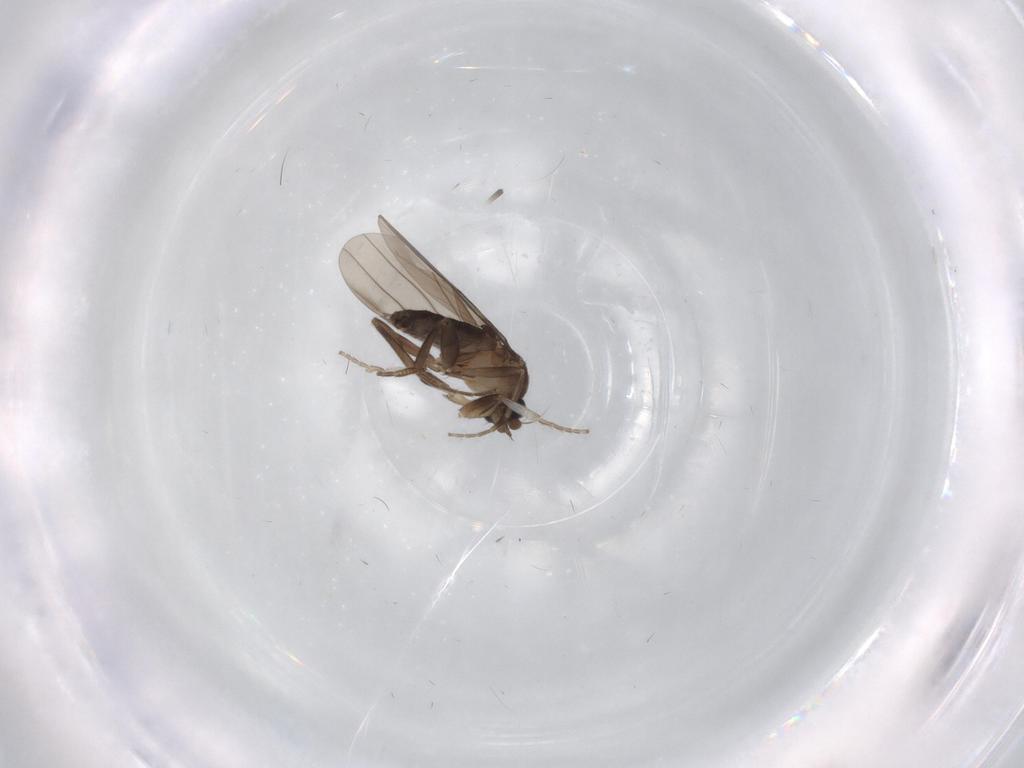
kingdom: Animalia
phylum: Arthropoda
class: Insecta
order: Diptera
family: Limoniidae
